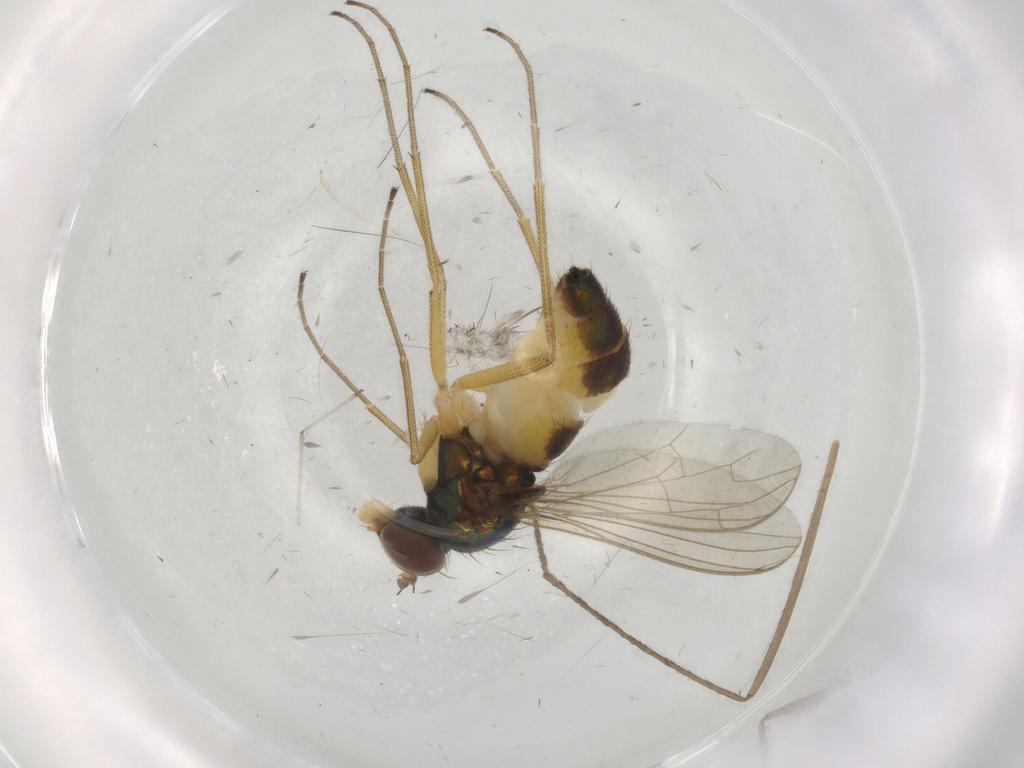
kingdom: Animalia
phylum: Arthropoda
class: Insecta
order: Diptera
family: Dolichopodidae
